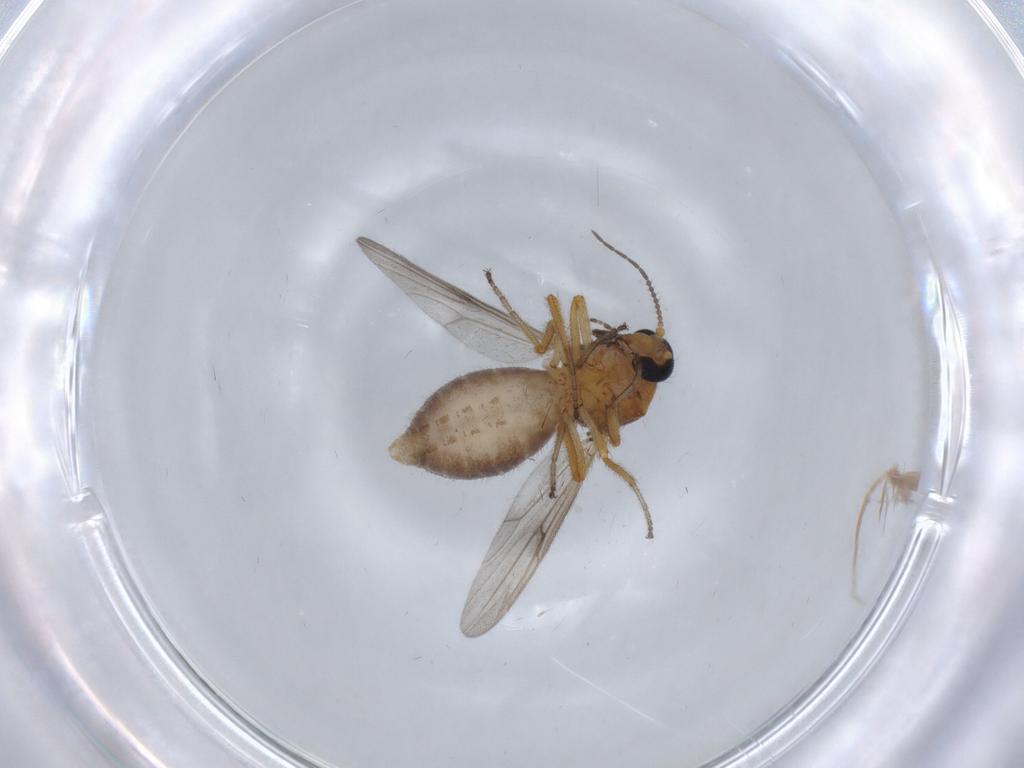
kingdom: Animalia
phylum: Arthropoda
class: Insecta
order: Diptera
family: Ceratopogonidae
